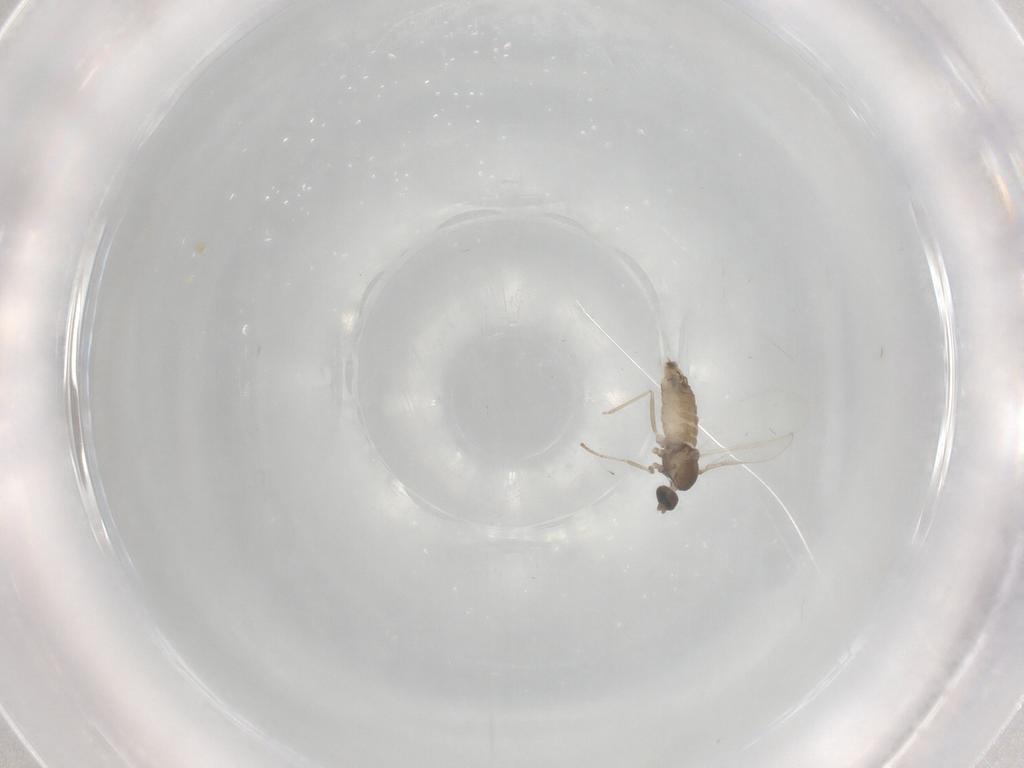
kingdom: Animalia
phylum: Arthropoda
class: Insecta
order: Diptera
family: Cecidomyiidae
